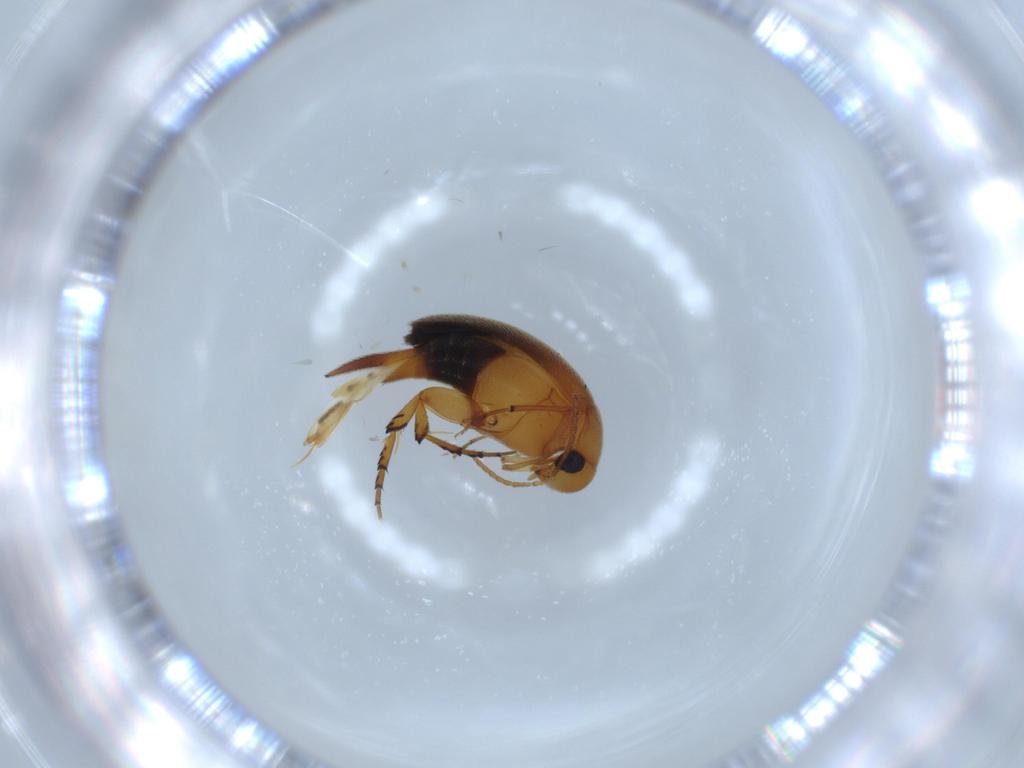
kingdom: Animalia
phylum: Arthropoda
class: Insecta
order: Coleoptera
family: Mordellidae
